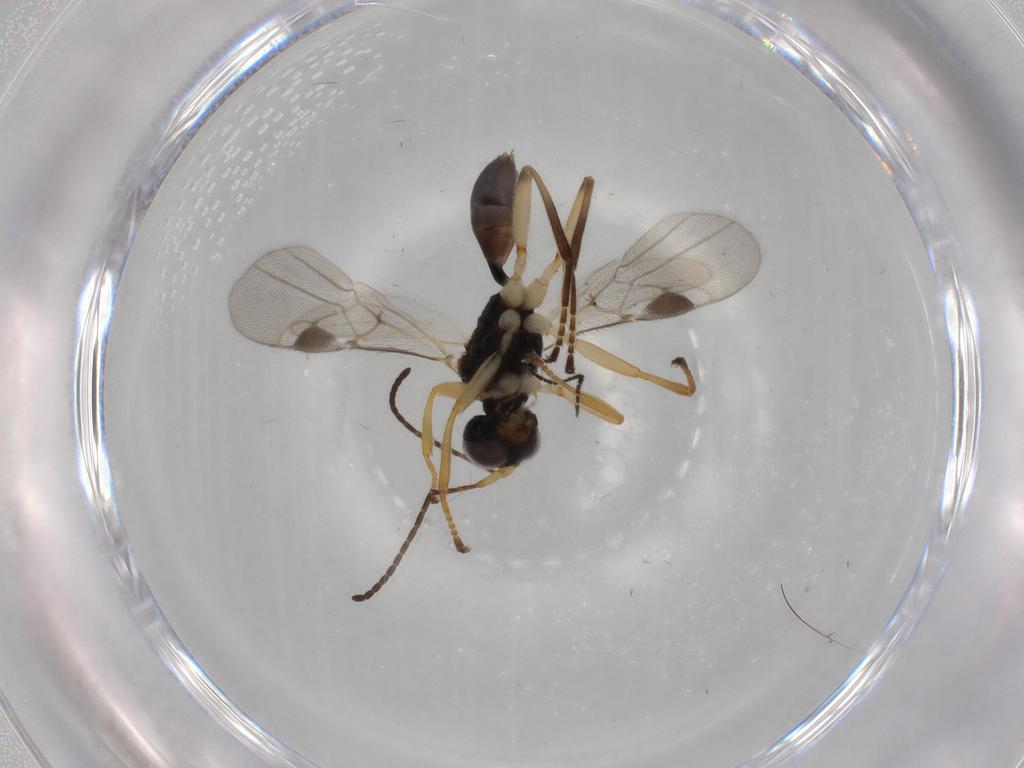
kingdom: Animalia
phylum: Arthropoda
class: Insecta
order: Hymenoptera
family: Braconidae
